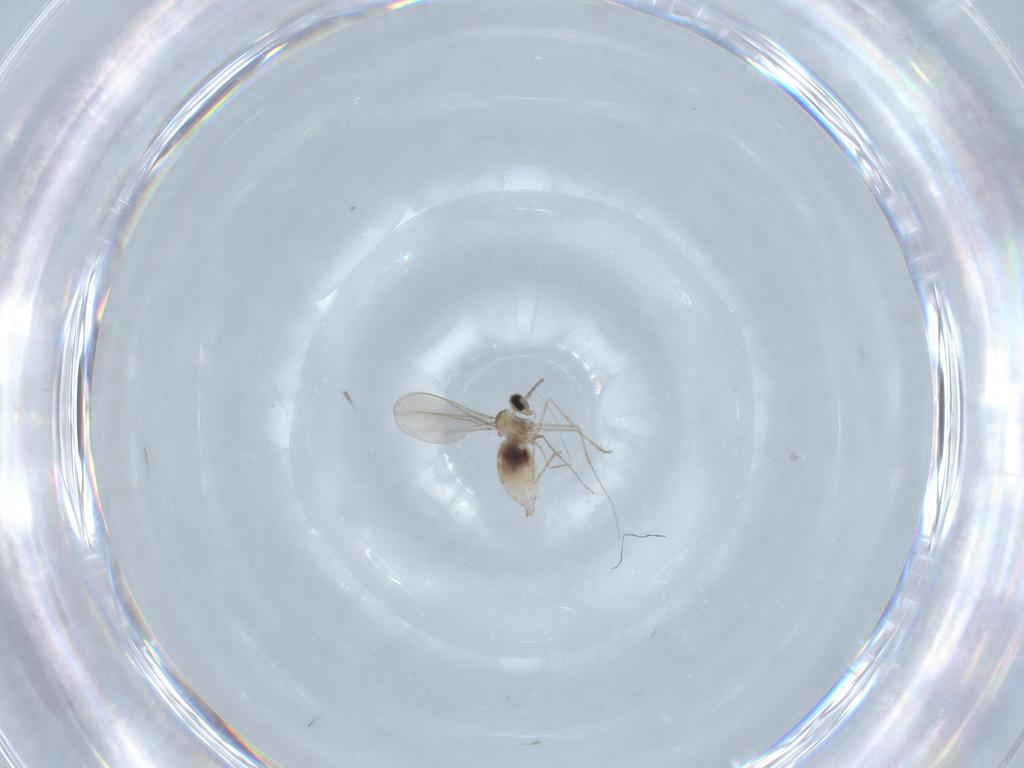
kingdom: Animalia
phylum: Arthropoda
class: Insecta
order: Diptera
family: Cecidomyiidae
